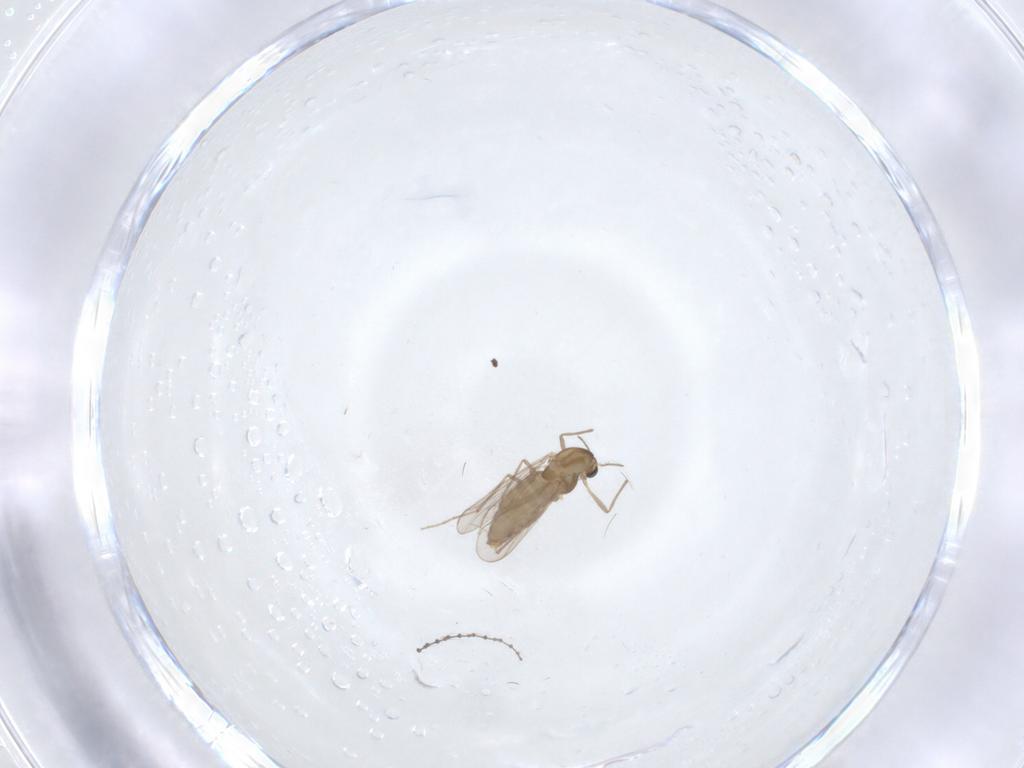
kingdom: Animalia
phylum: Arthropoda
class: Insecta
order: Diptera
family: Chironomidae
